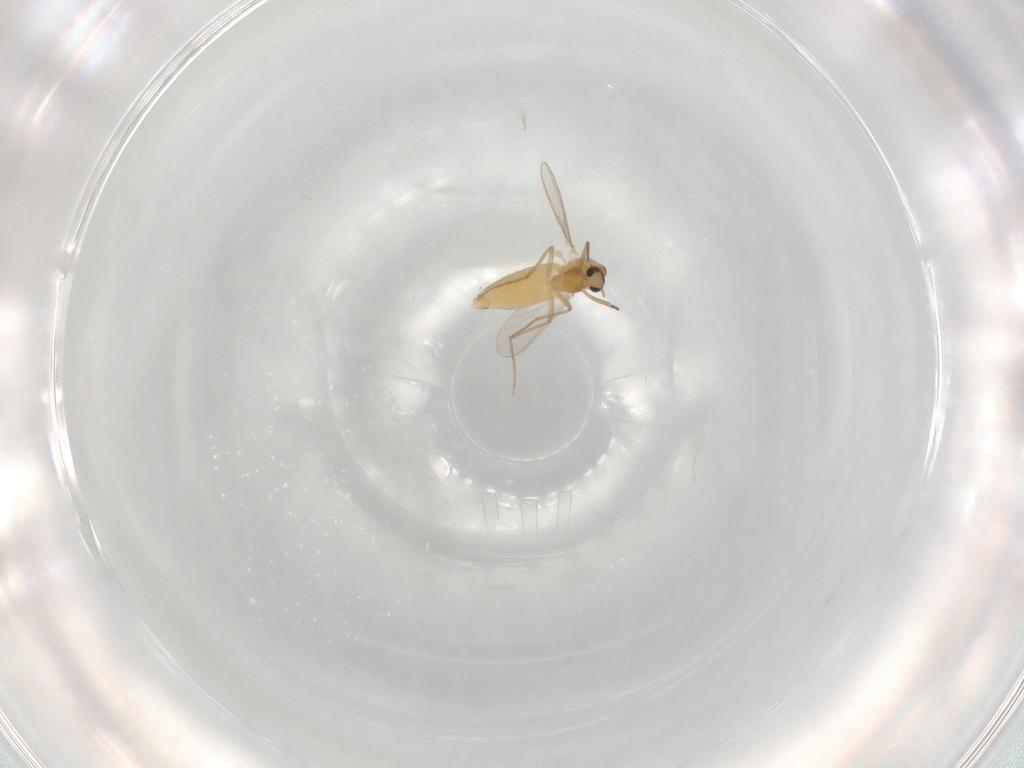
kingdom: Animalia
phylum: Arthropoda
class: Insecta
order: Diptera
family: Chironomidae
